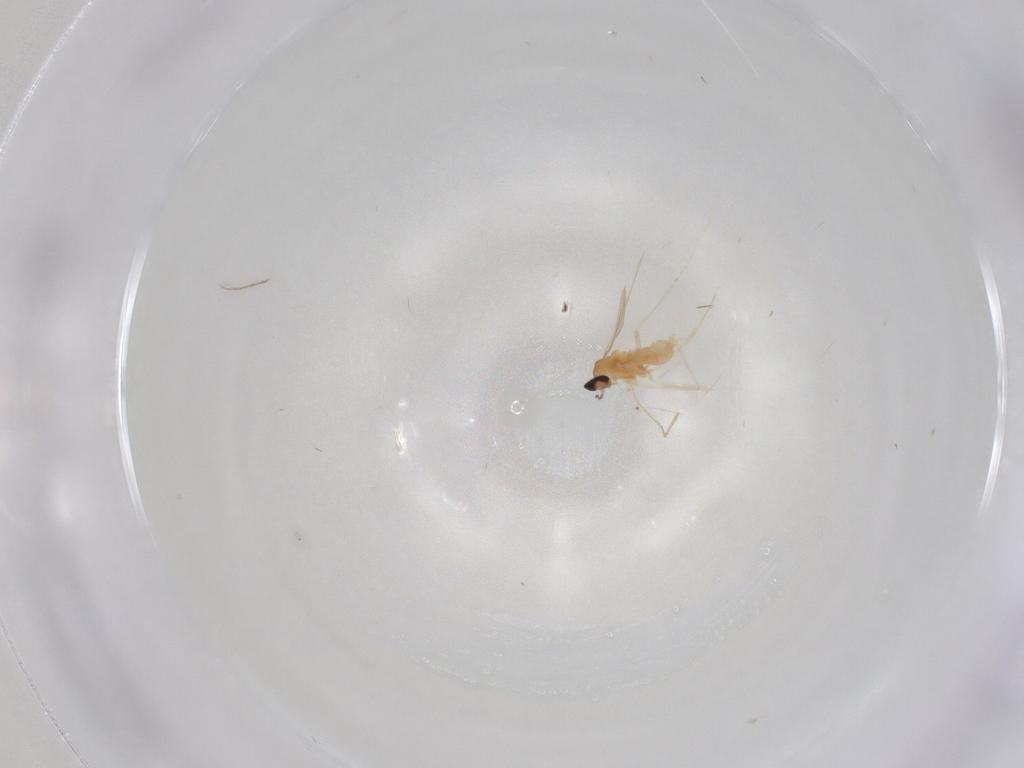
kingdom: Animalia
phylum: Arthropoda
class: Insecta
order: Diptera
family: Cecidomyiidae
